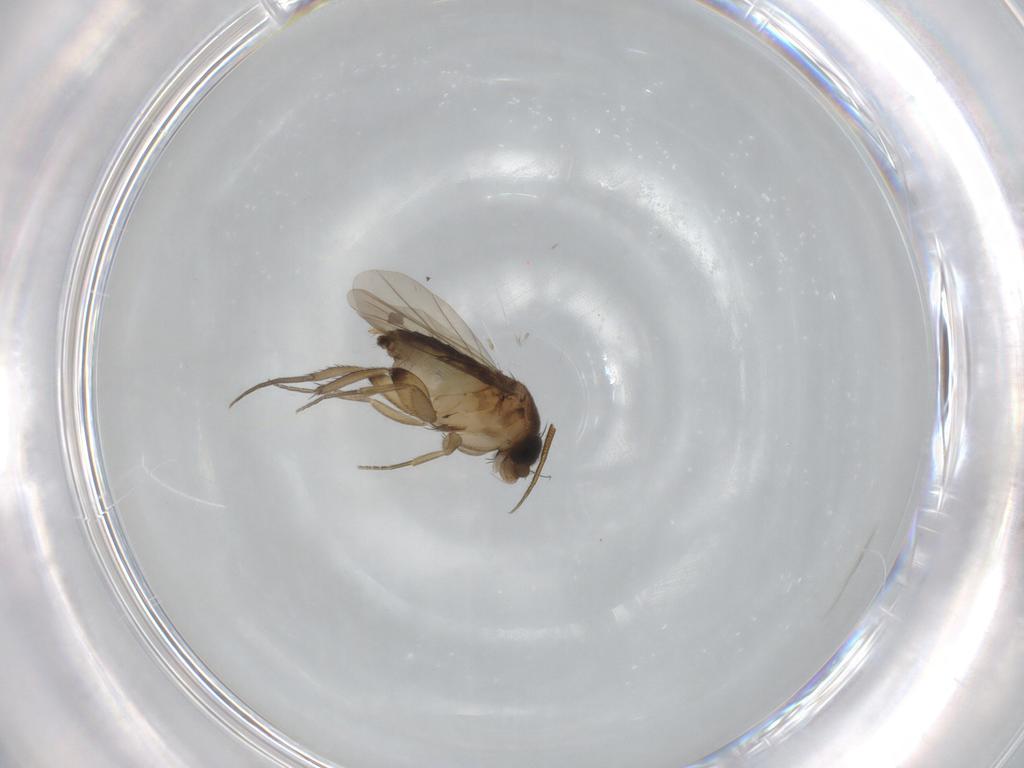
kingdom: Animalia
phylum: Arthropoda
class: Insecta
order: Diptera
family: Phoridae
